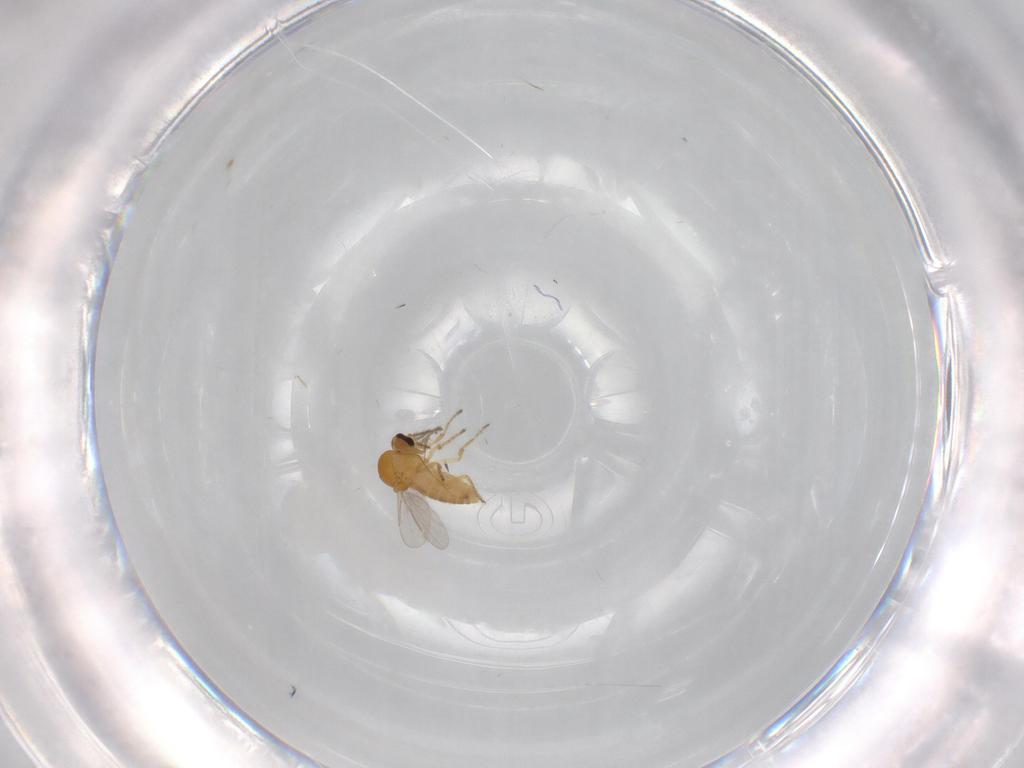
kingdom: Animalia
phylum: Arthropoda
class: Insecta
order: Diptera
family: Ceratopogonidae
